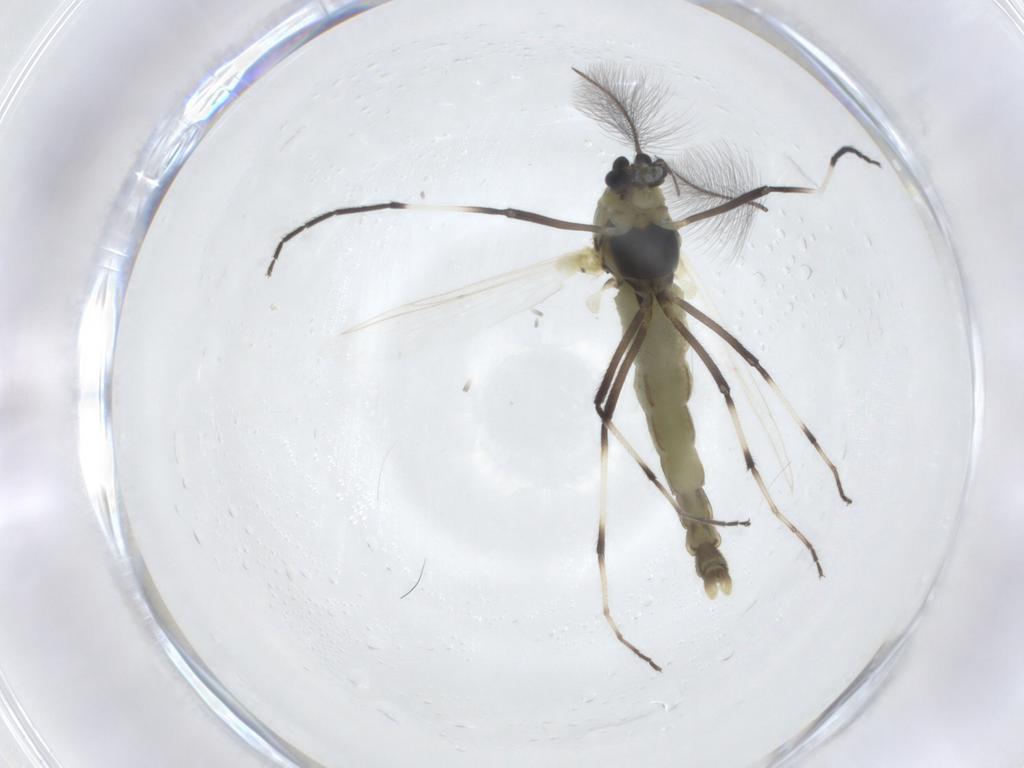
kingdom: Animalia
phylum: Arthropoda
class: Insecta
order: Diptera
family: Chironomidae
